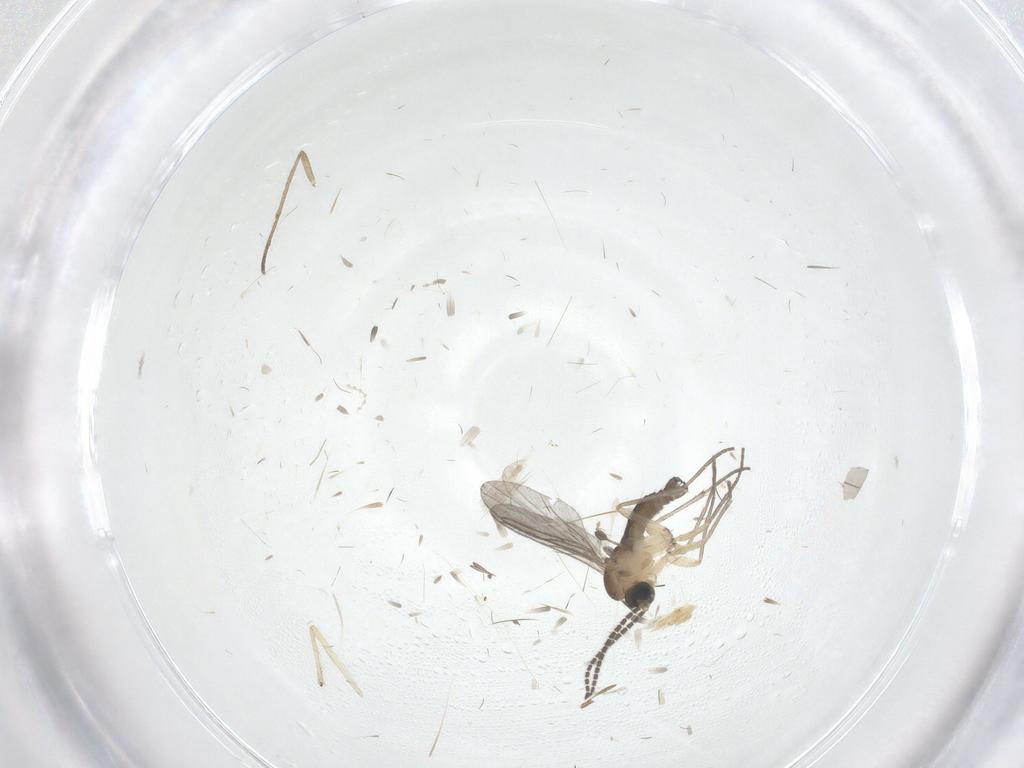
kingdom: Animalia
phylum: Arthropoda
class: Insecta
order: Diptera
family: Sciaridae
